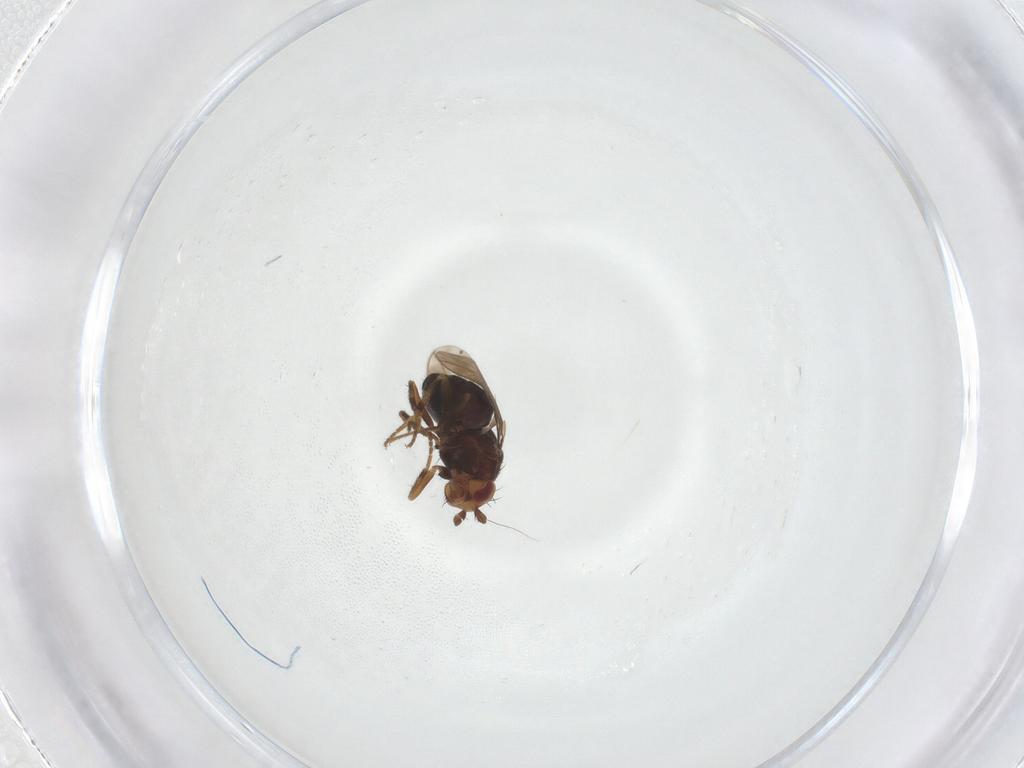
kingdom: Animalia
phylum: Arthropoda
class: Insecta
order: Diptera
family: Sphaeroceridae
